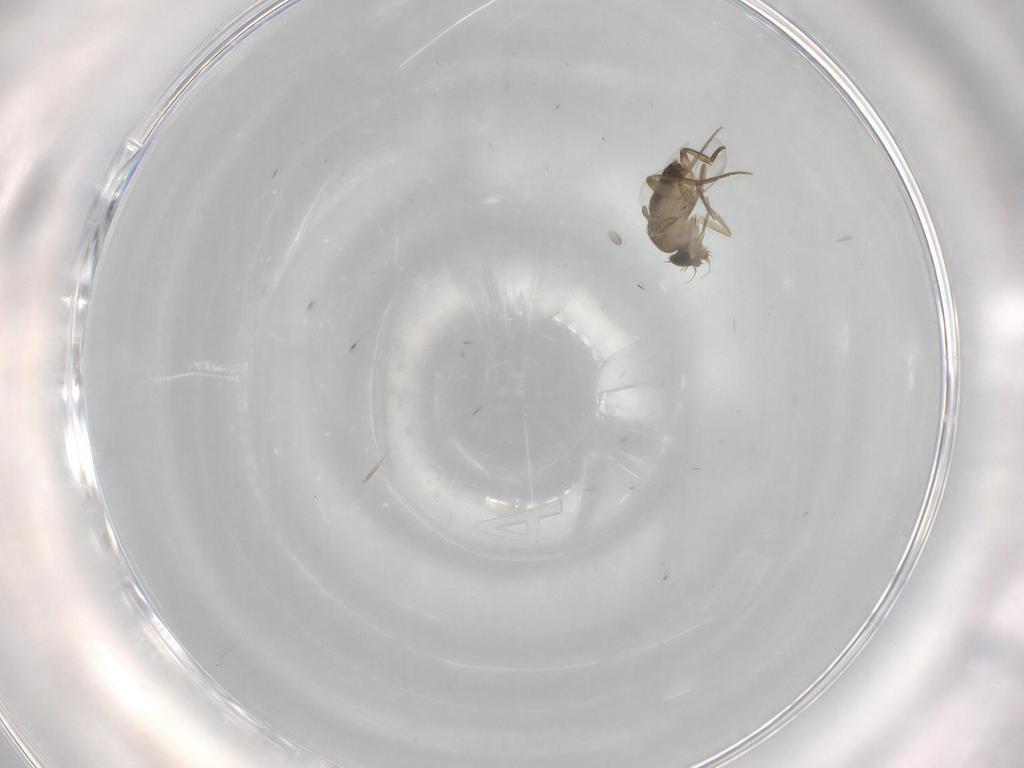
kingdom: Animalia
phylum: Arthropoda
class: Insecta
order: Diptera
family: Phoridae
